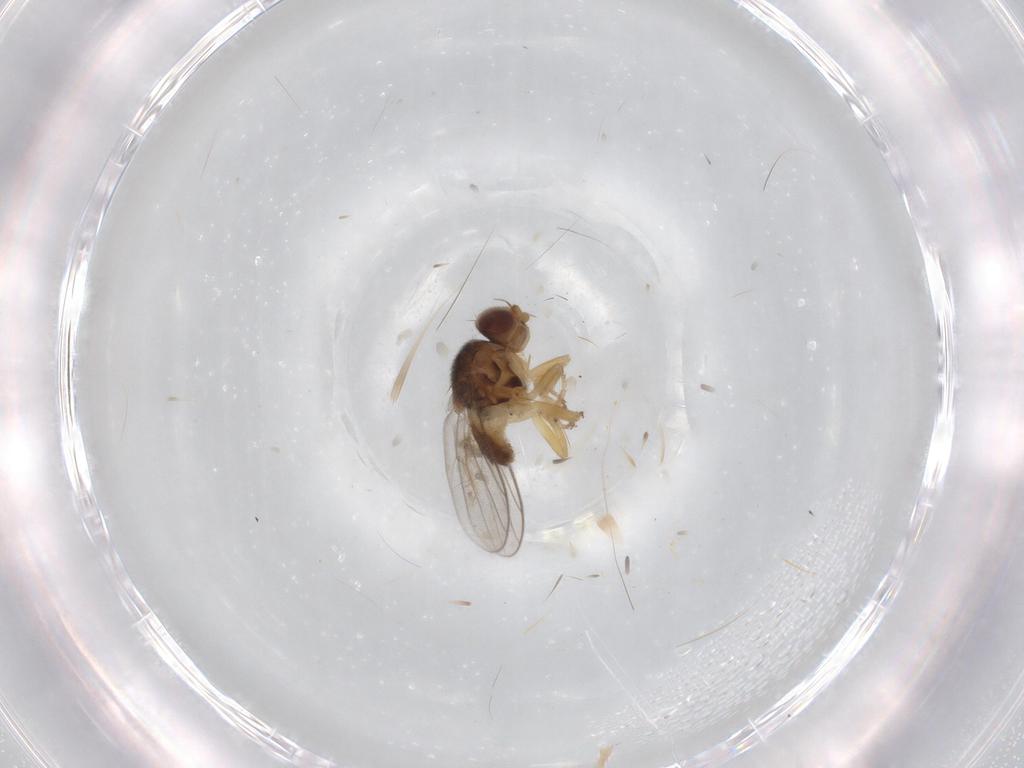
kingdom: Animalia
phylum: Arthropoda
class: Insecta
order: Diptera
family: Chloropidae
